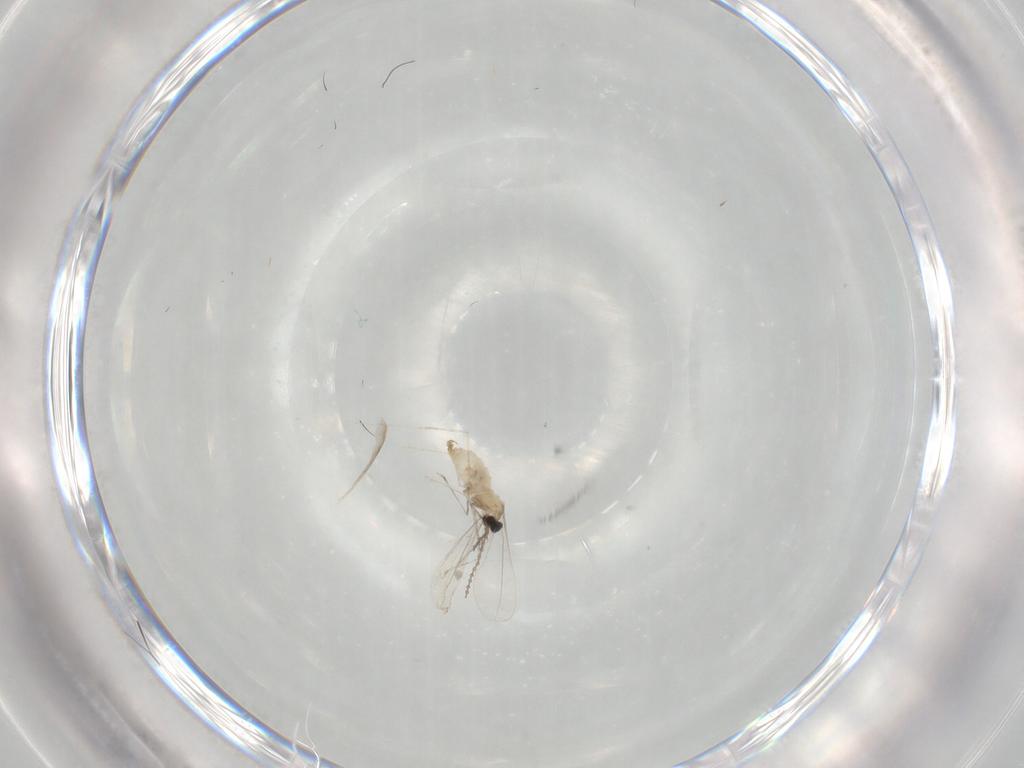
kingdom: Animalia
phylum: Arthropoda
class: Insecta
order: Diptera
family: Limoniidae
